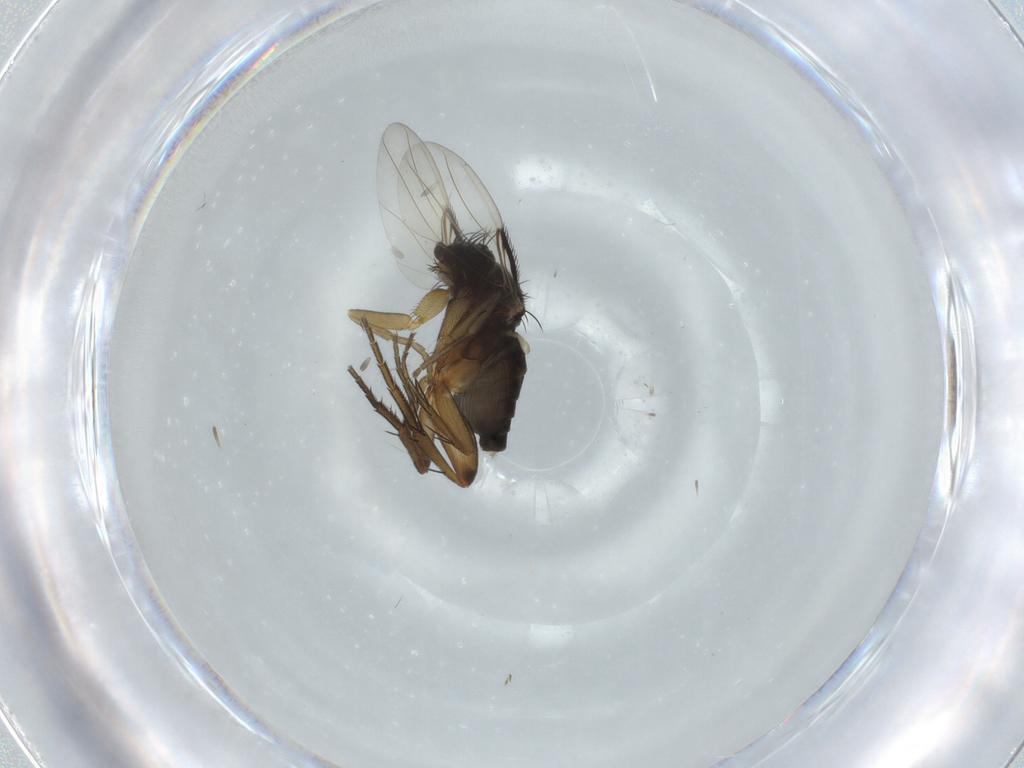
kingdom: Animalia
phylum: Arthropoda
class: Insecta
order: Diptera
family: Phoridae
